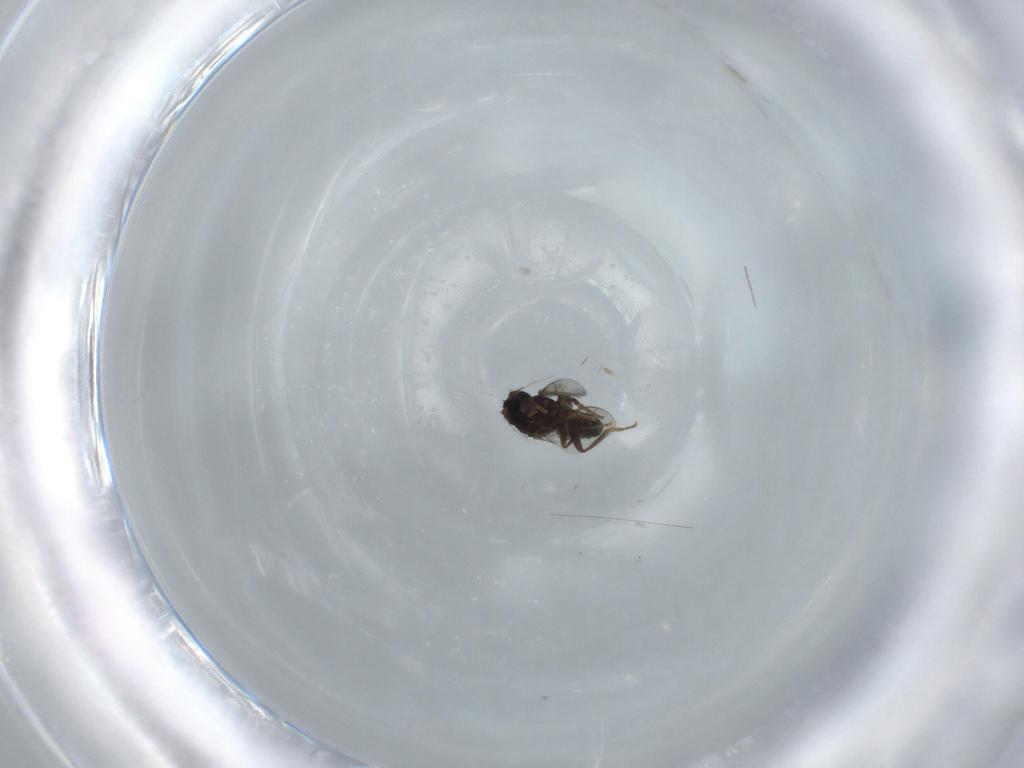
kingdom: Animalia
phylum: Arthropoda
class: Insecta
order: Diptera
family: Sphaeroceridae
